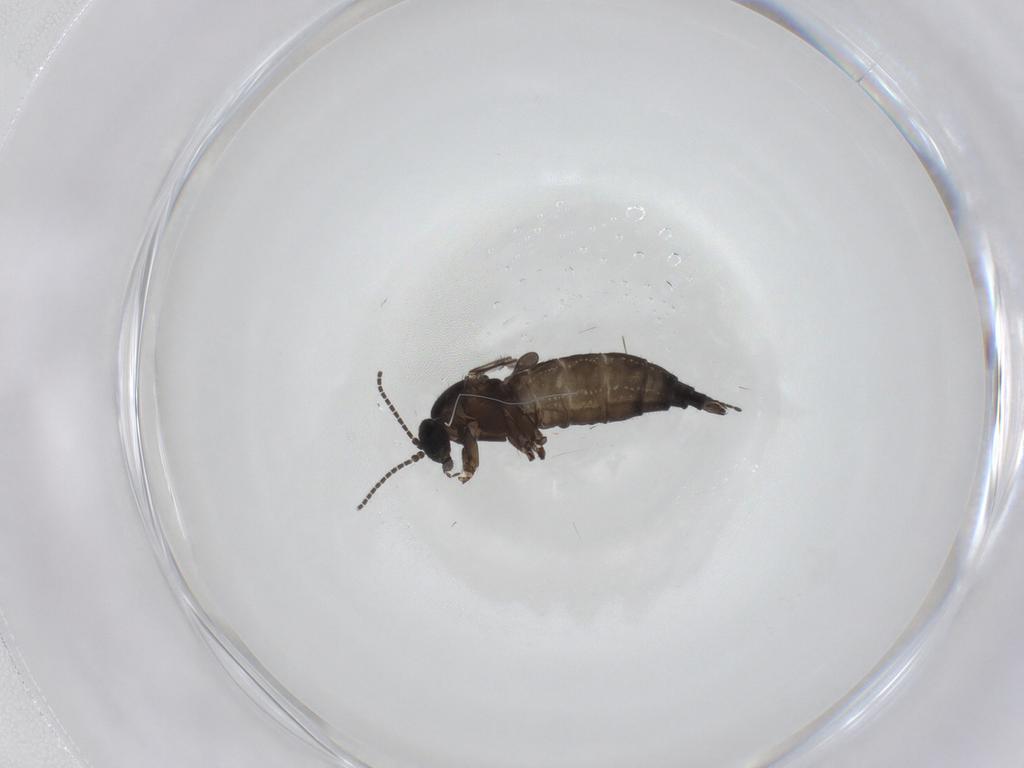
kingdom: Animalia
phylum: Arthropoda
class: Insecta
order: Diptera
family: Sciaridae
